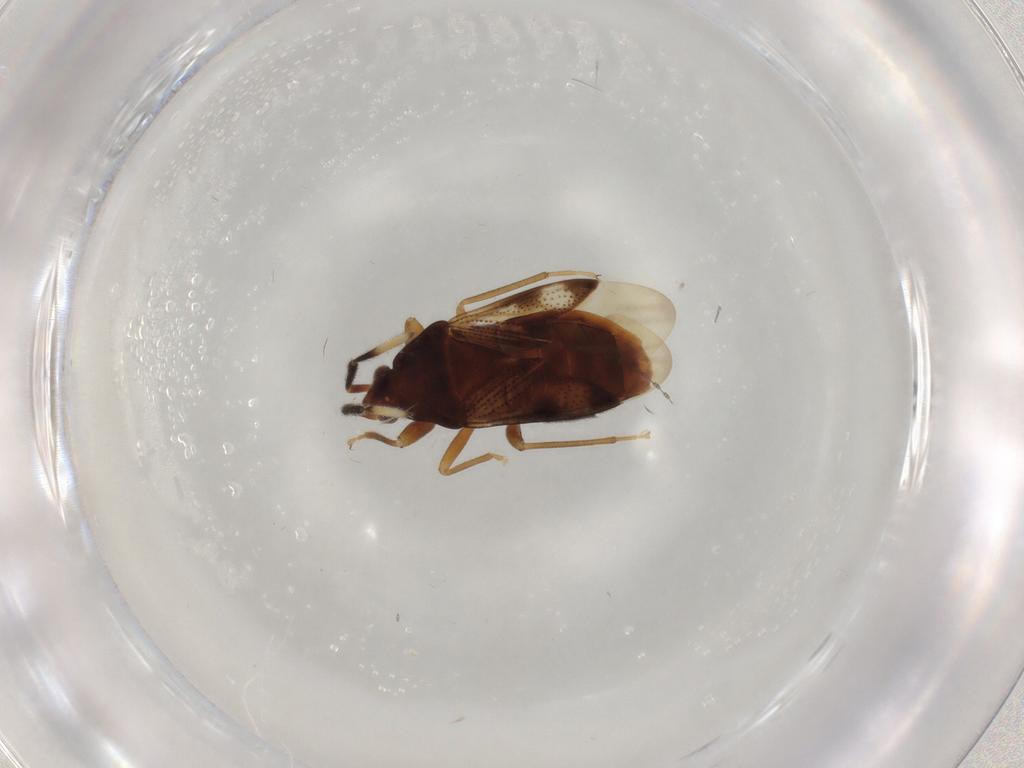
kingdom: Animalia
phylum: Arthropoda
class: Insecta
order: Hemiptera
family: Rhyparochromidae
